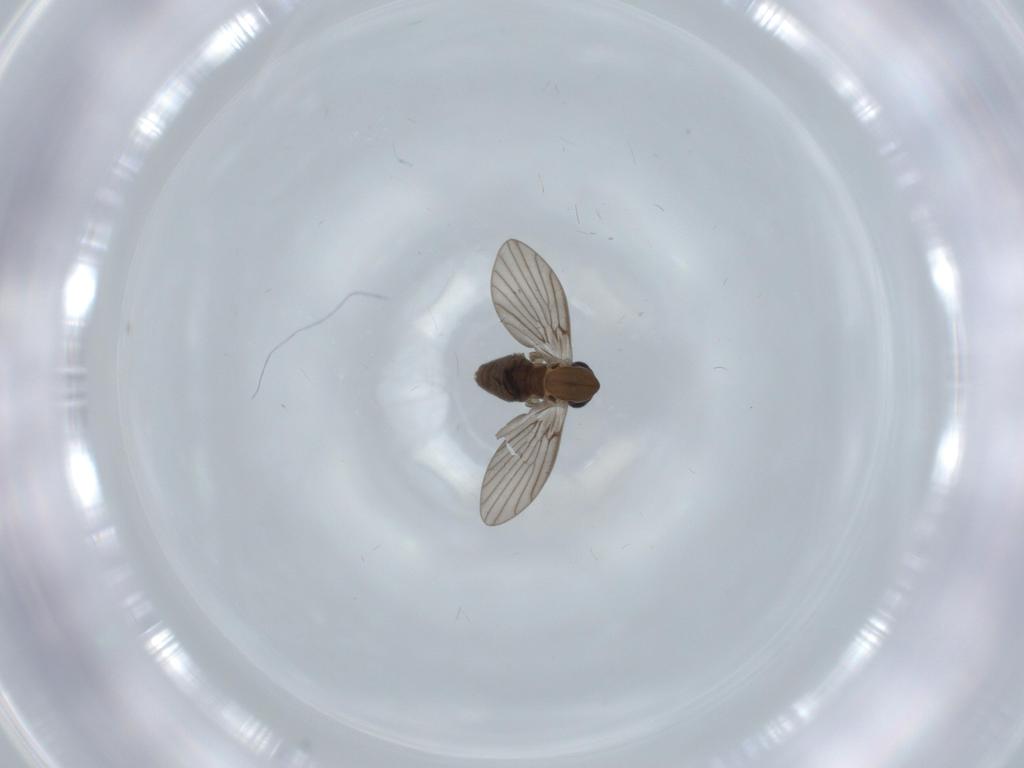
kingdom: Animalia
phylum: Arthropoda
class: Insecta
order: Diptera
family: Psychodidae
